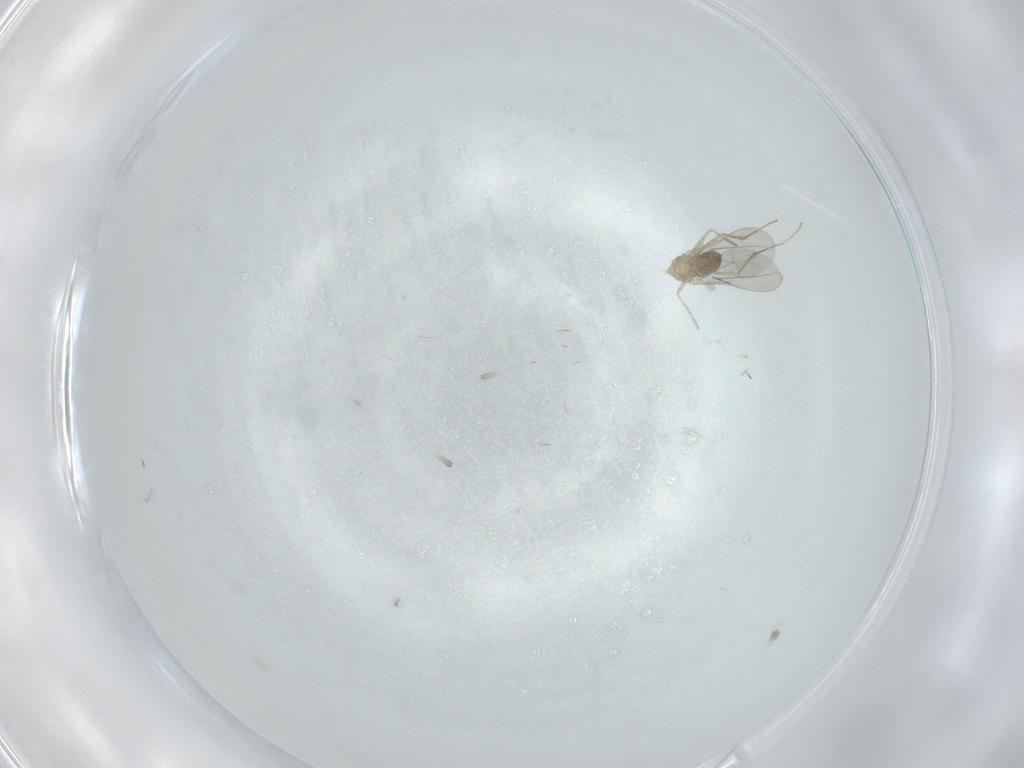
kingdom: Animalia
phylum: Arthropoda
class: Insecta
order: Diptera
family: Cecidomyiidae
